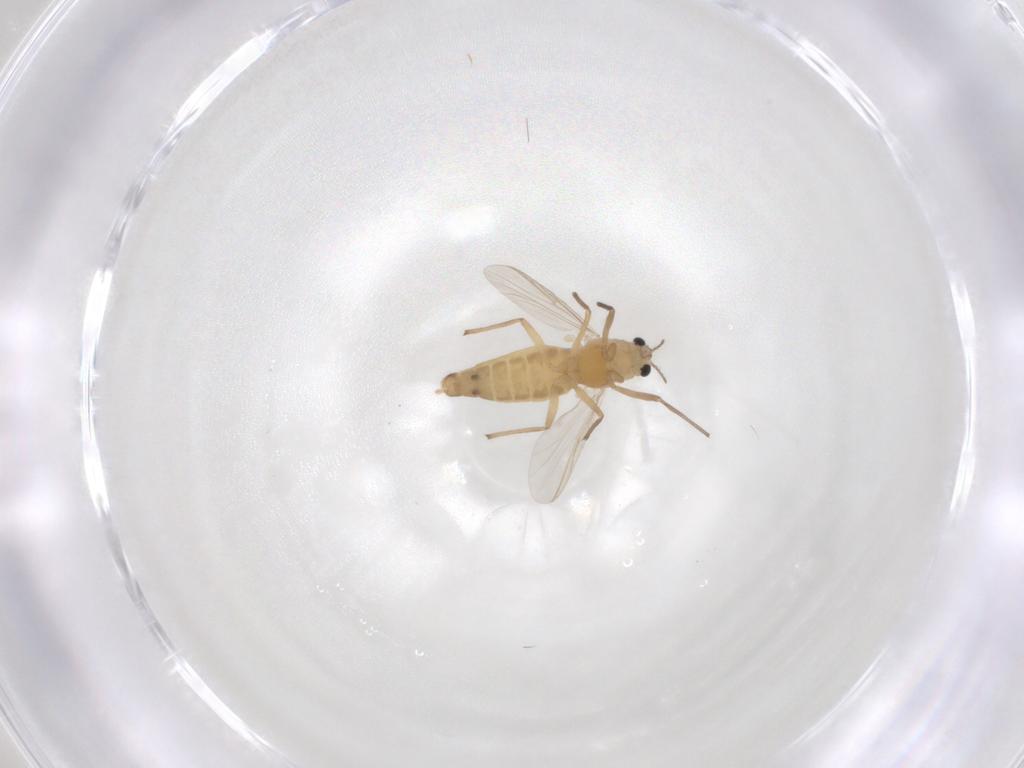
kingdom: Animalia
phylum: Arthropoda
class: Insecta
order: Diptera
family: Sciaridae
